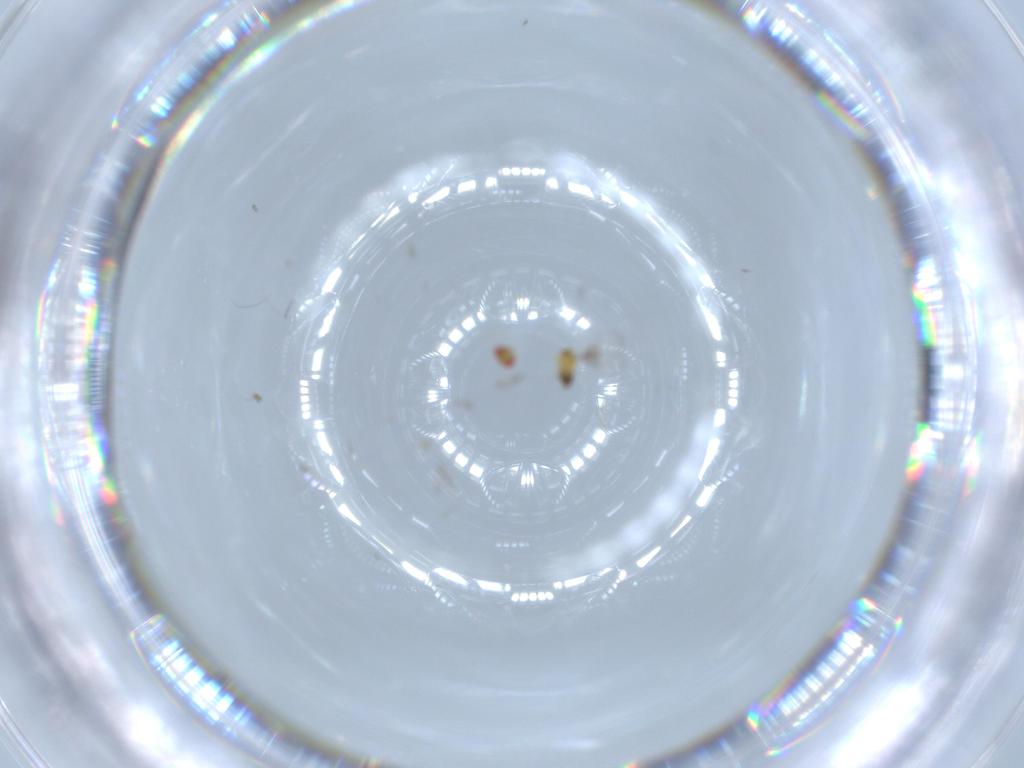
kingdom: Animalia
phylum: Arthropoda
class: Insecta
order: Hymenoptera
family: Trichogrammatidae
